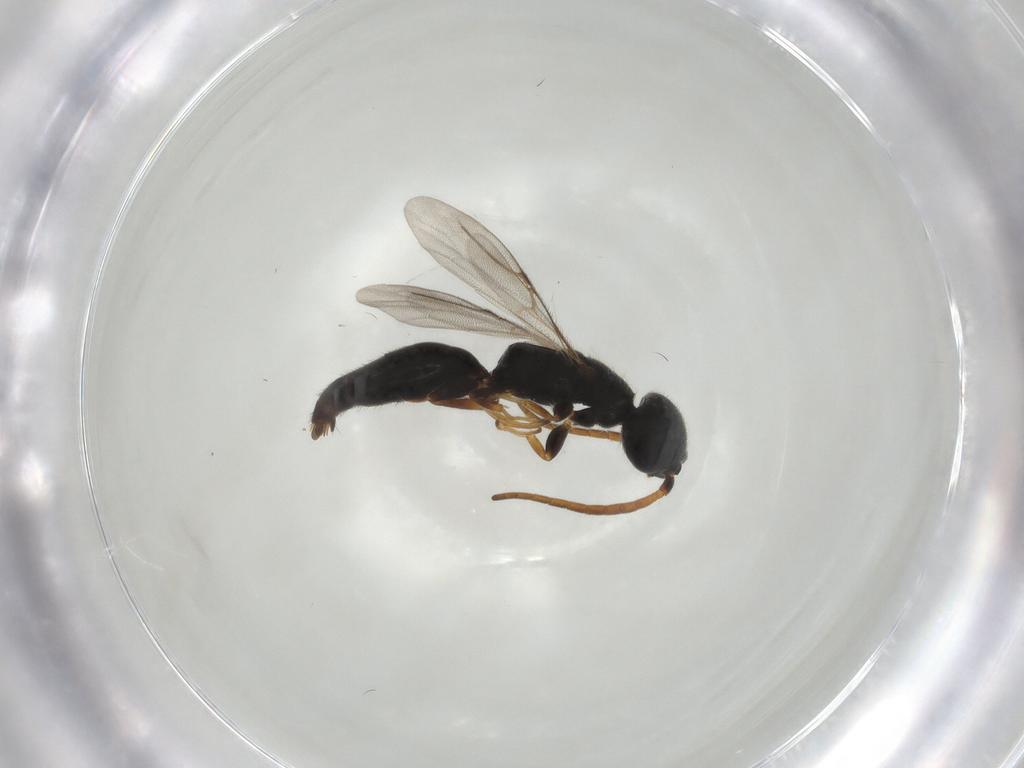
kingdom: Animalia
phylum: Arthropoda
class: Insecta
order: Hymenoptera
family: Bethylidae
